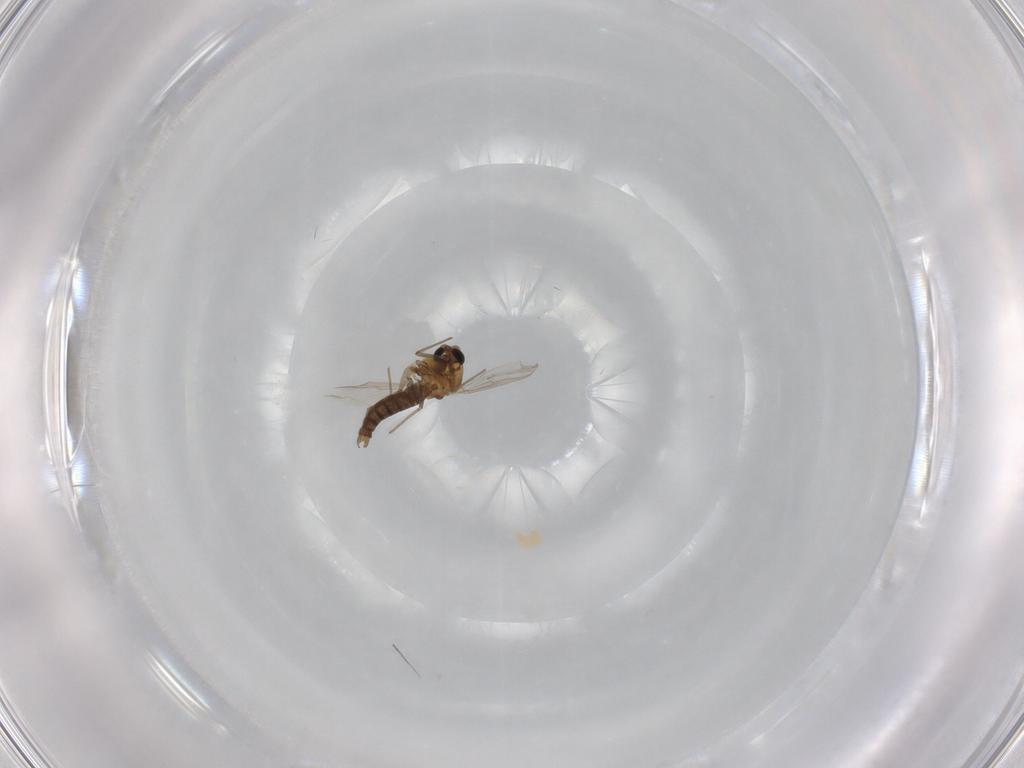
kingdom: Animalia
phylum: Arthropoda
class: Insecta
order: Diptera
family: Chironomidae
